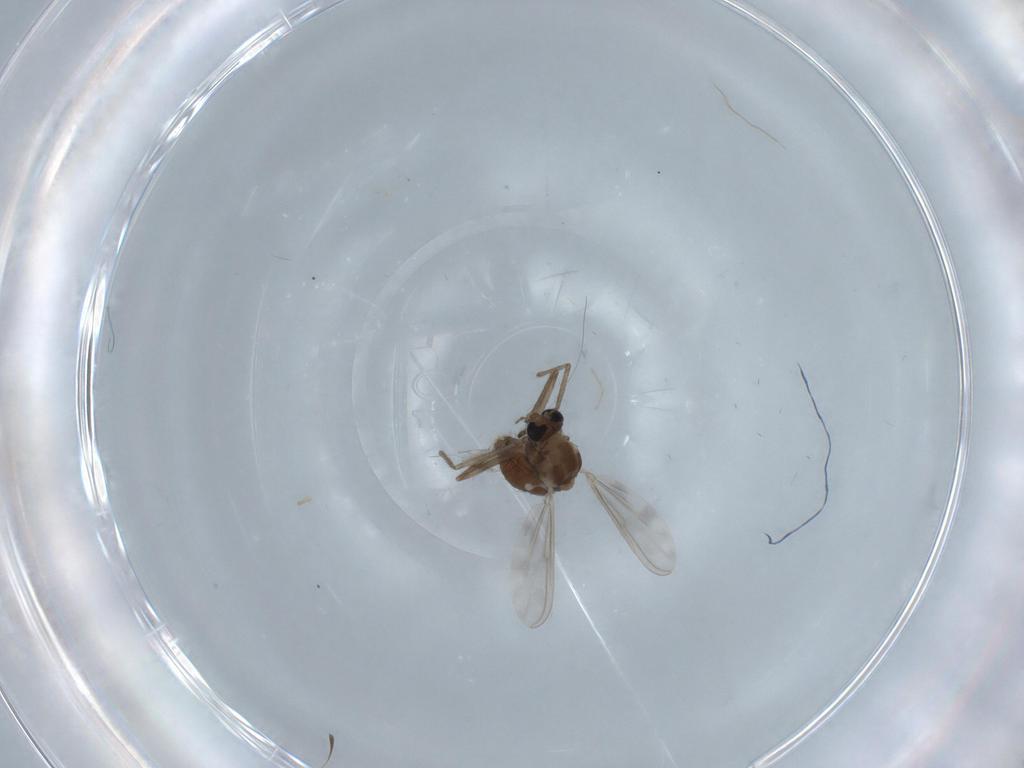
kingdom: Animalia
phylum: Arthropoda
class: Insecta
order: Diptera
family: Chironomidae
